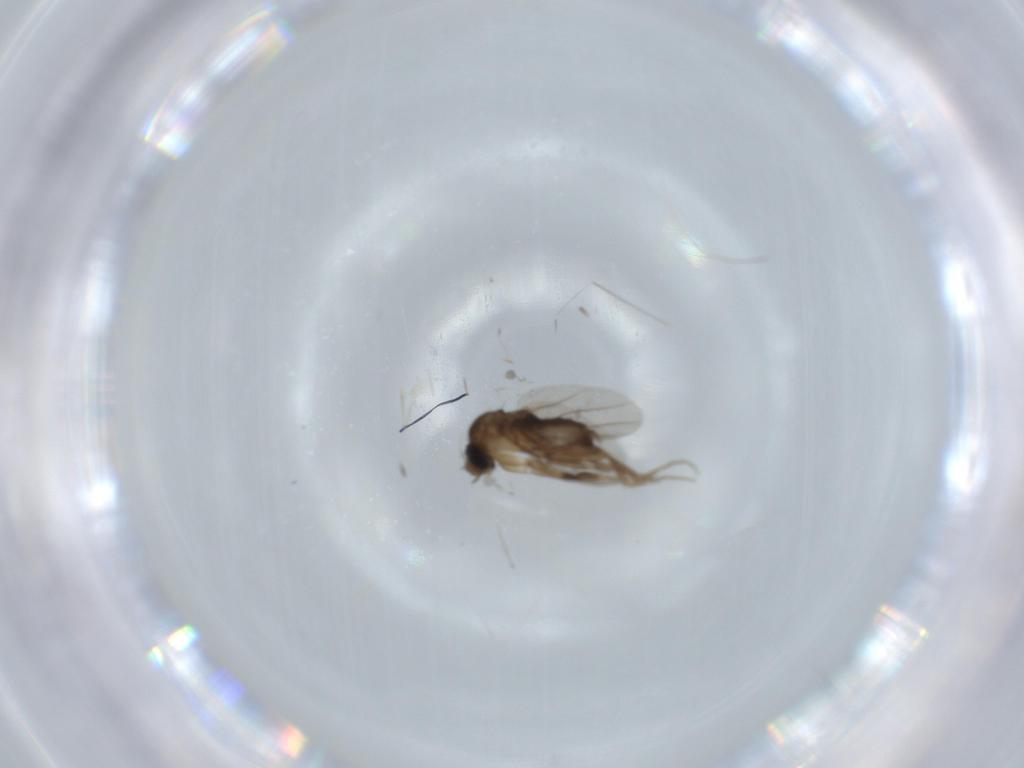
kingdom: Animalia
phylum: Arthropoda
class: Insecta
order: Diptera
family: Phoridae
